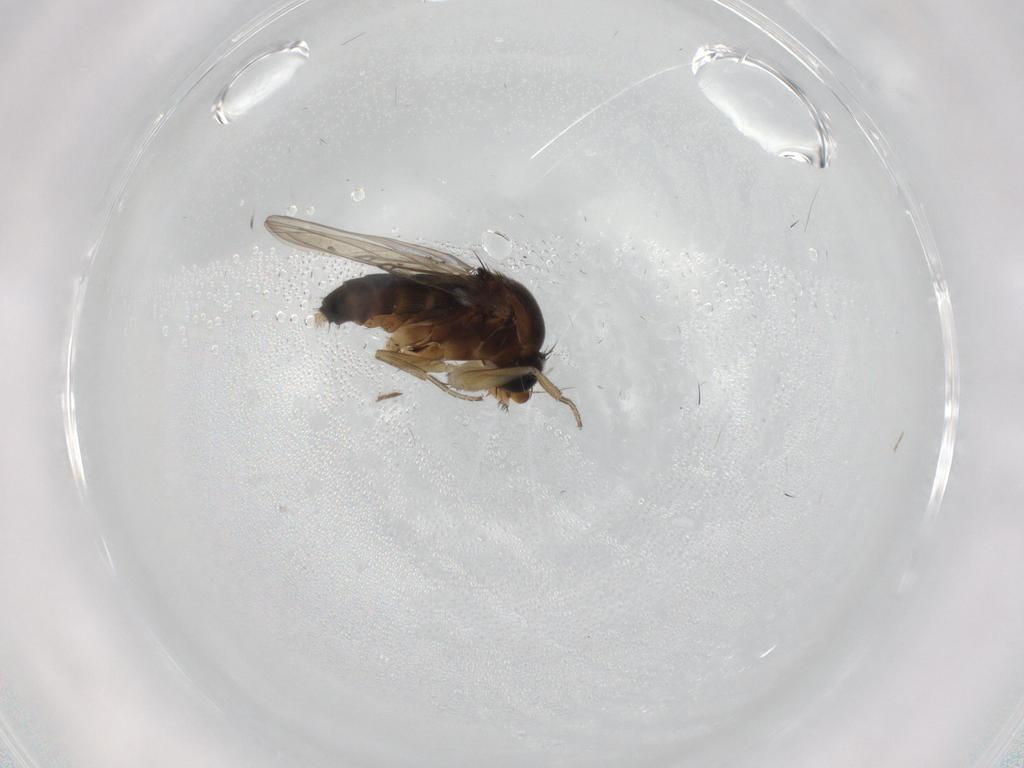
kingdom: Animalia
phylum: Arthropoda
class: Insecta
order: Diptera
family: Phoridae
